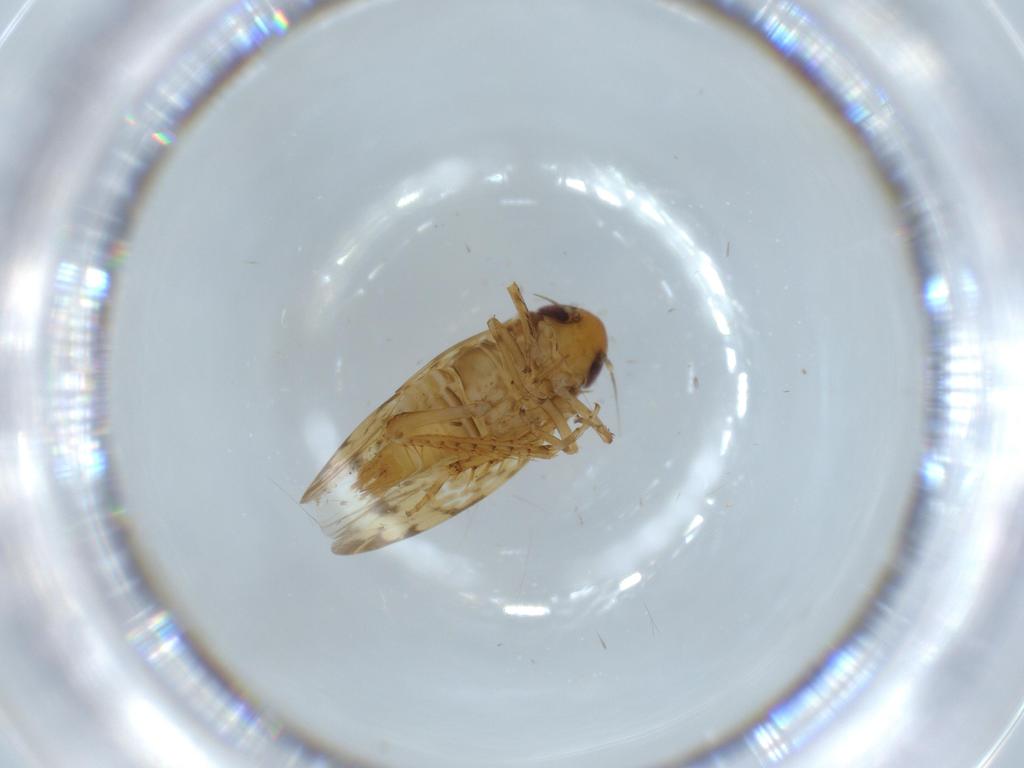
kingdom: Animalia
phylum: Arthropoda
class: Insecta
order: Hemiptera
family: Cicadellidae
